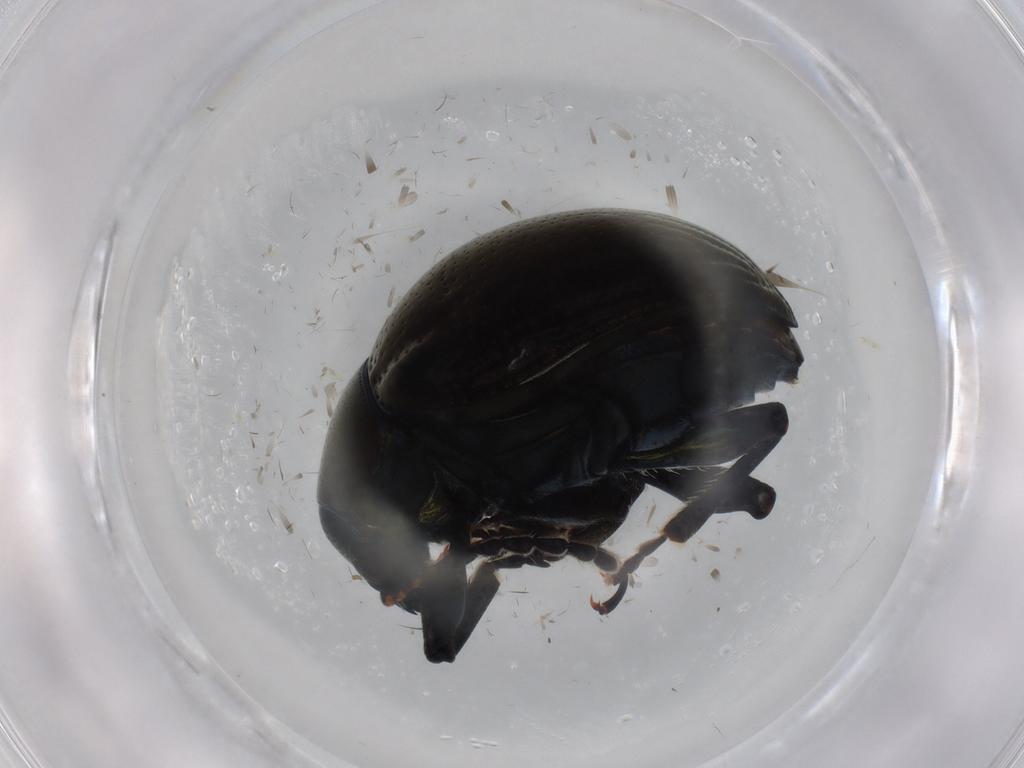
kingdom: Animalia
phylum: Arthropoda
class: Insecta
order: Coleoptera
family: Chrysomelidae
